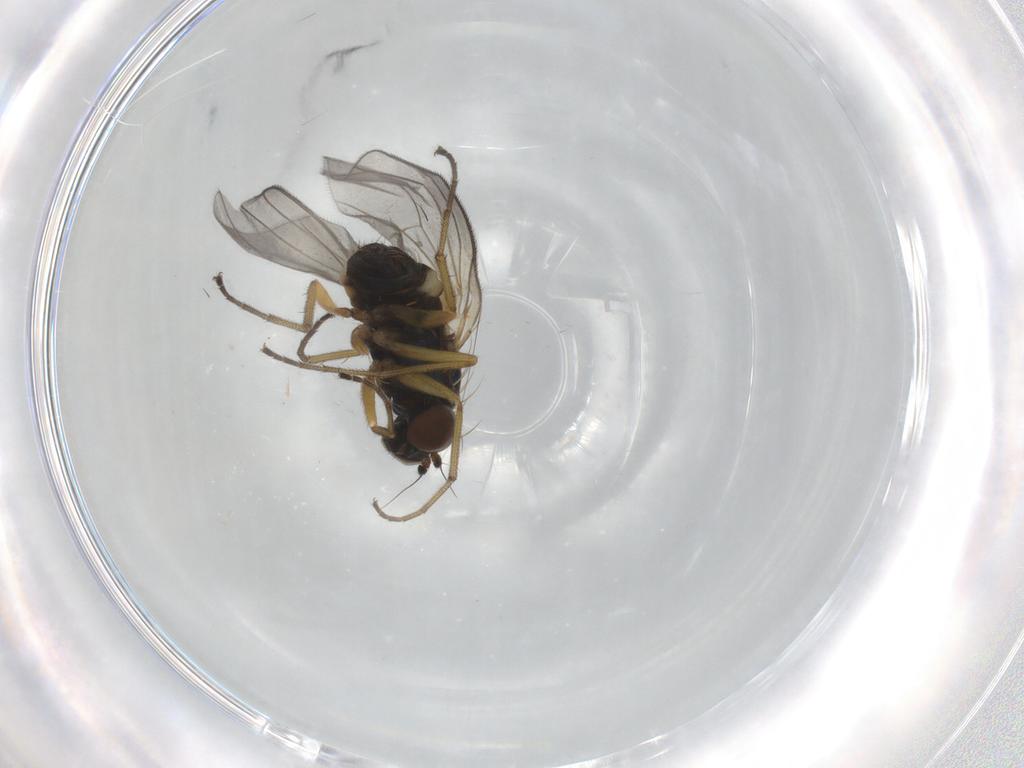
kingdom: Animalia
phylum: Arthropoda
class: Insecta
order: Diptera
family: Dolichopodidae
